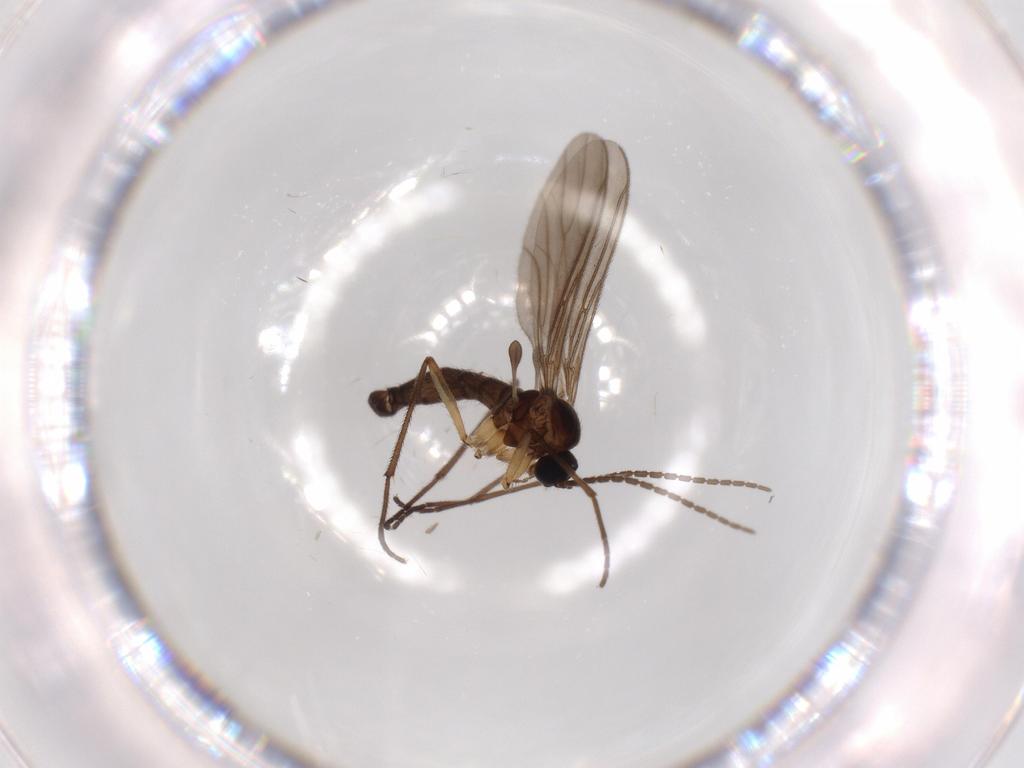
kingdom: Animalia
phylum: Arthropoda
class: Insecta
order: Diptera
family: Sciaridae
